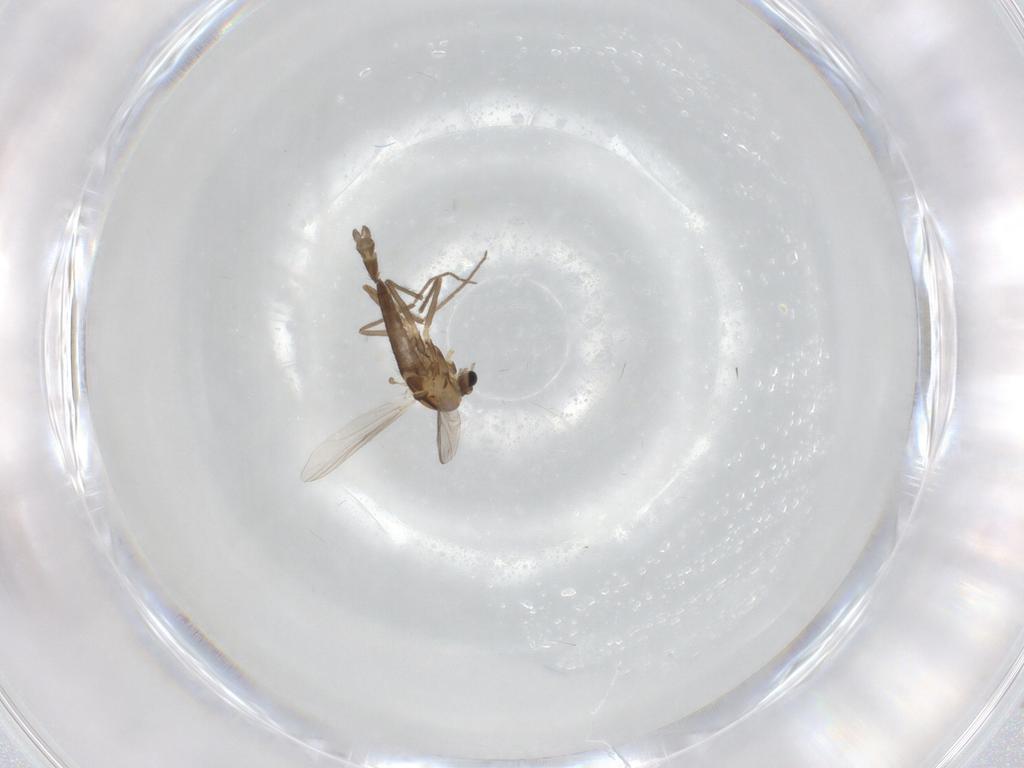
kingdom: Animalia
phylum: Arthropoda
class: Insecta
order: Diptera
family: Chironomidae
